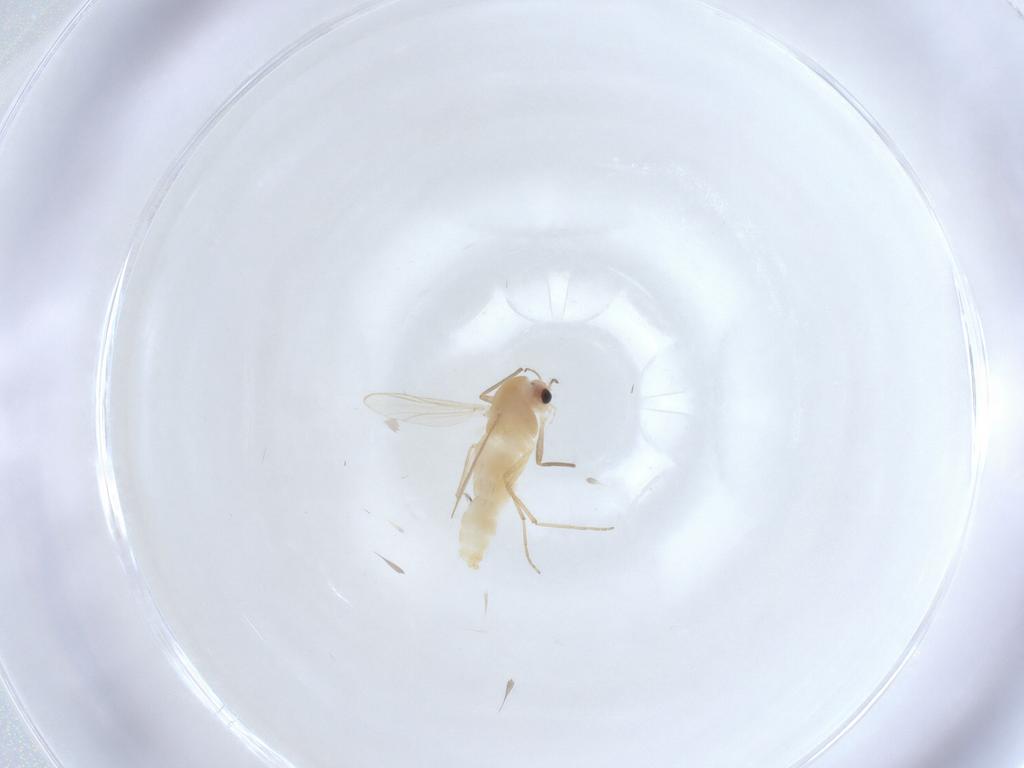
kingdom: Animalia
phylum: Arthropoda
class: Insecta
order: Diptera
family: Chironomidae
